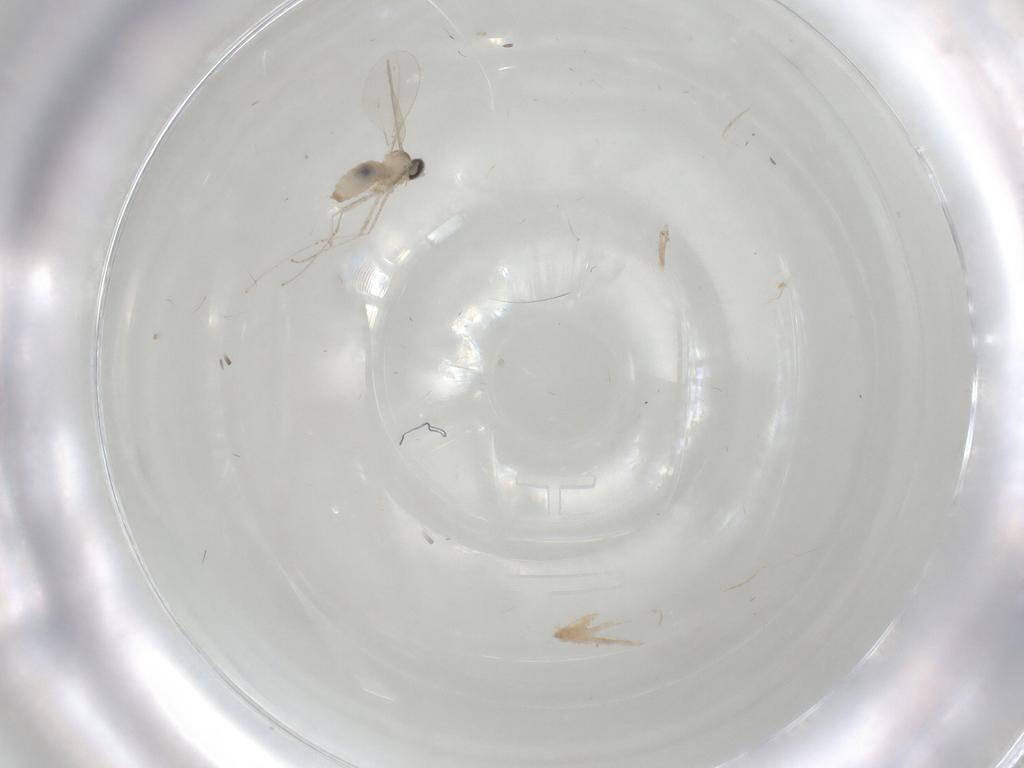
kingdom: Animalia
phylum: Arthropoda
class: Insecta
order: Diptera
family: Cecidomyiidae
